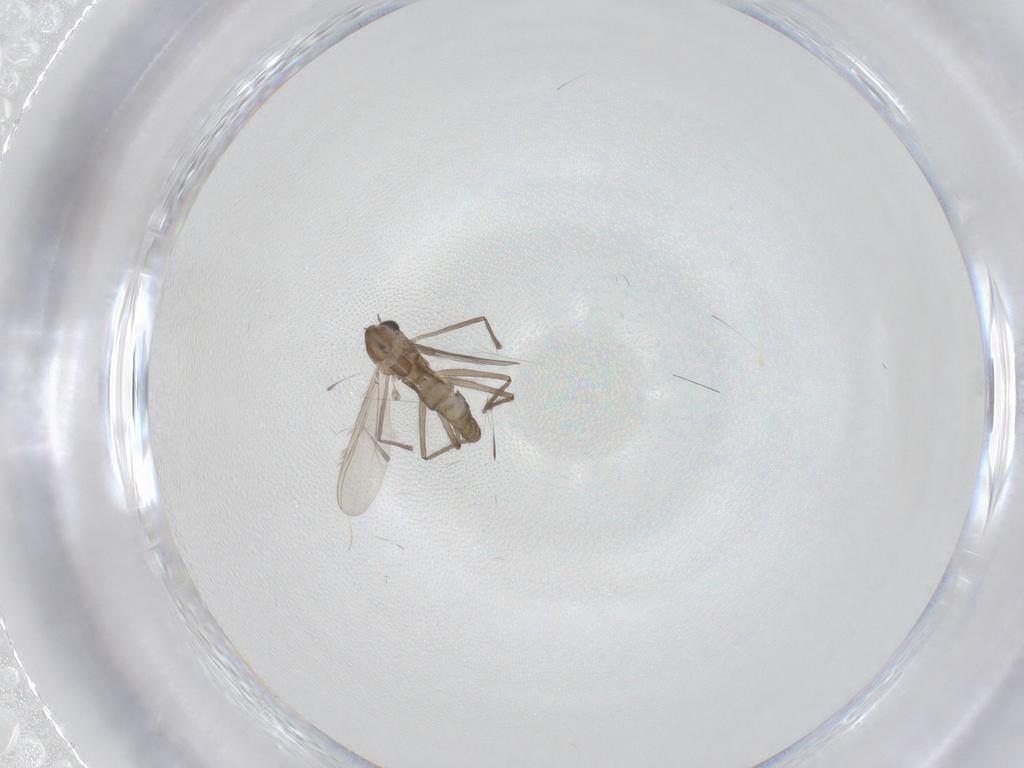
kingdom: Animalia
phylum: Arthropoda
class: Insecta
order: Diptera
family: Chironomidae
